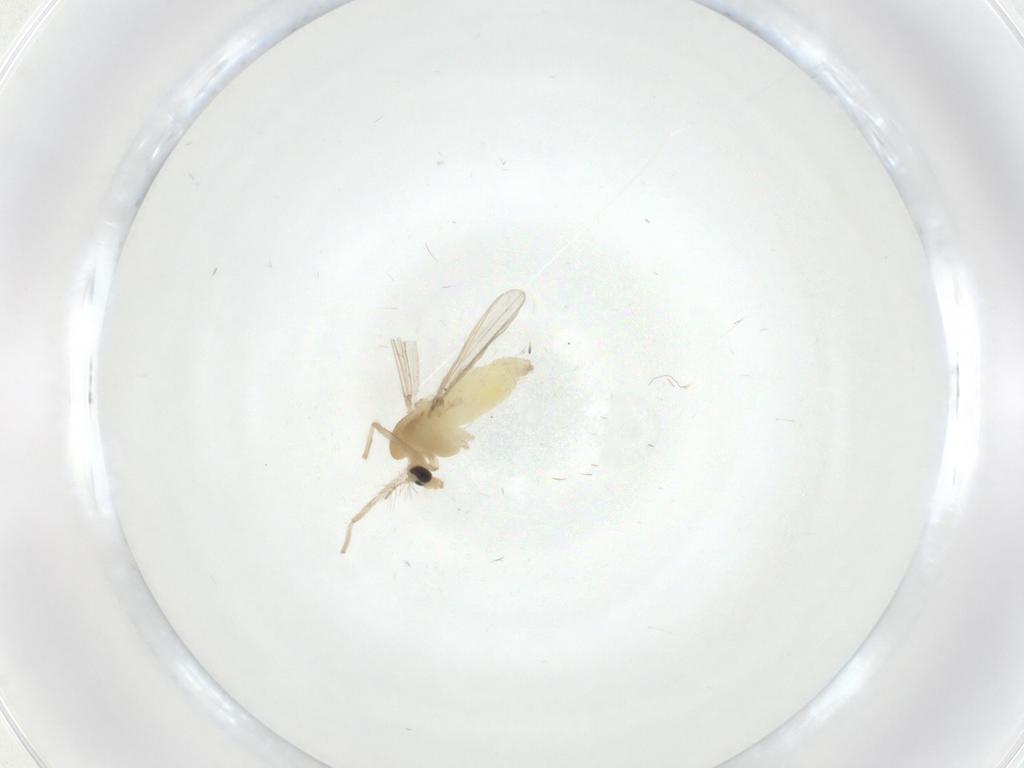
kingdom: Animalia
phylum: Arthropoda
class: Insecta
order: Diptera
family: Chironomidae
